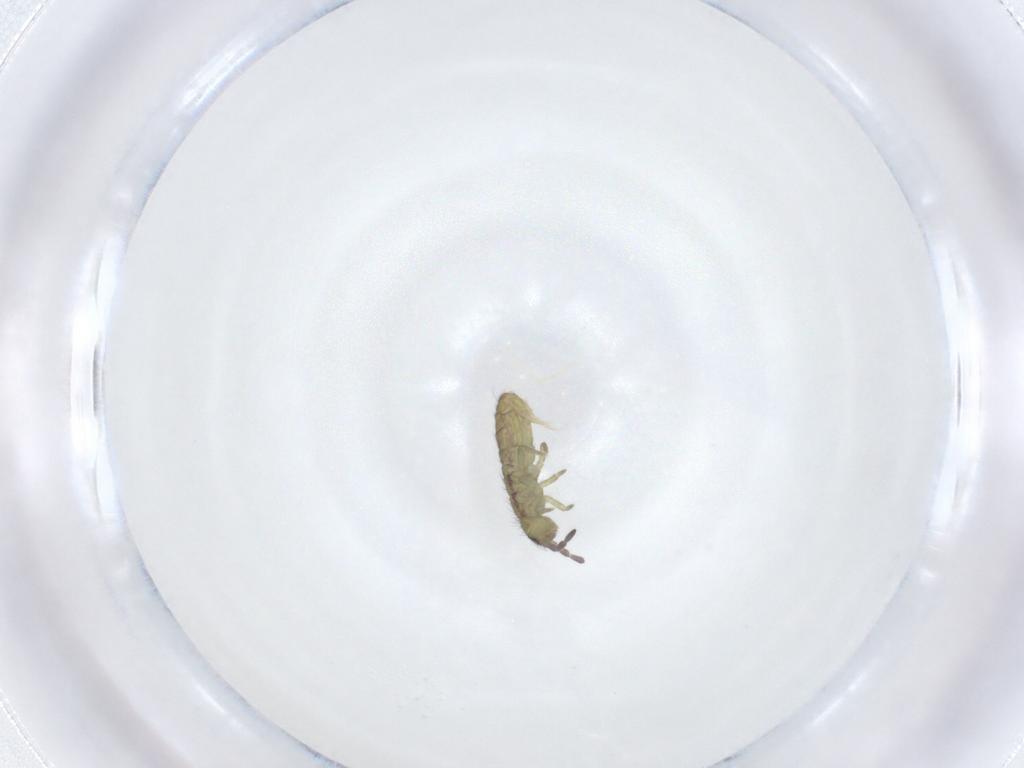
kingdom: Animalia
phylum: Arthropoda
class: Collembola
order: Entomobryomorpha
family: Isotomidae
